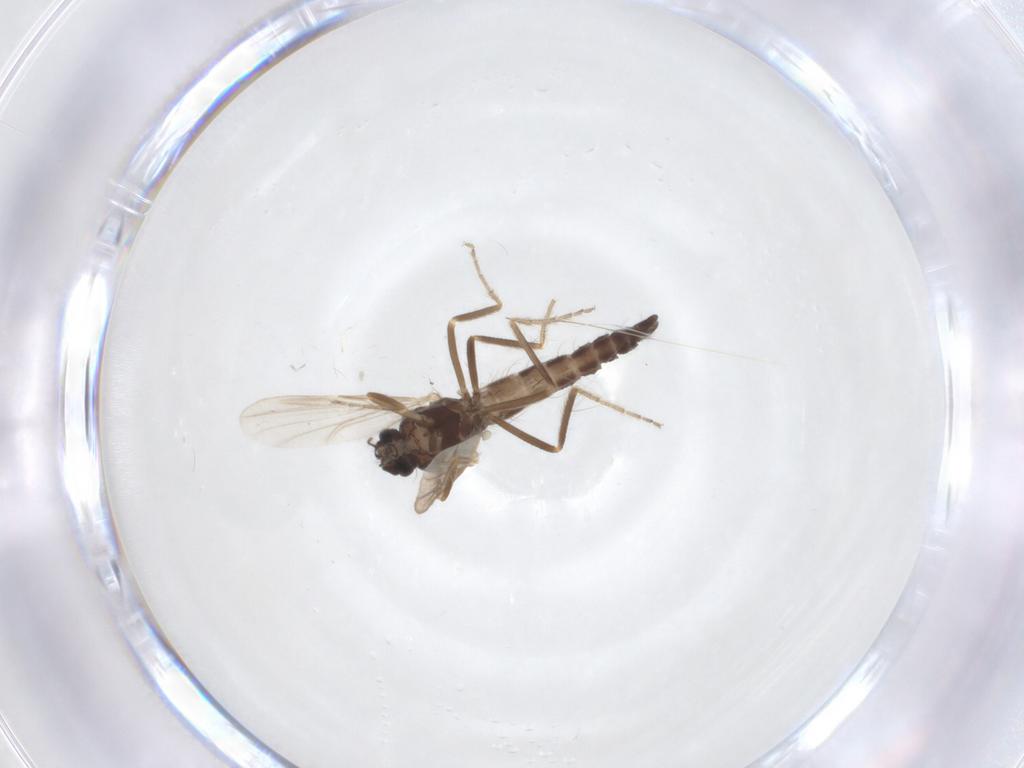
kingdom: Animalia
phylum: Arthropoda
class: Insecta
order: Diptera
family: Ceratopogonidae
